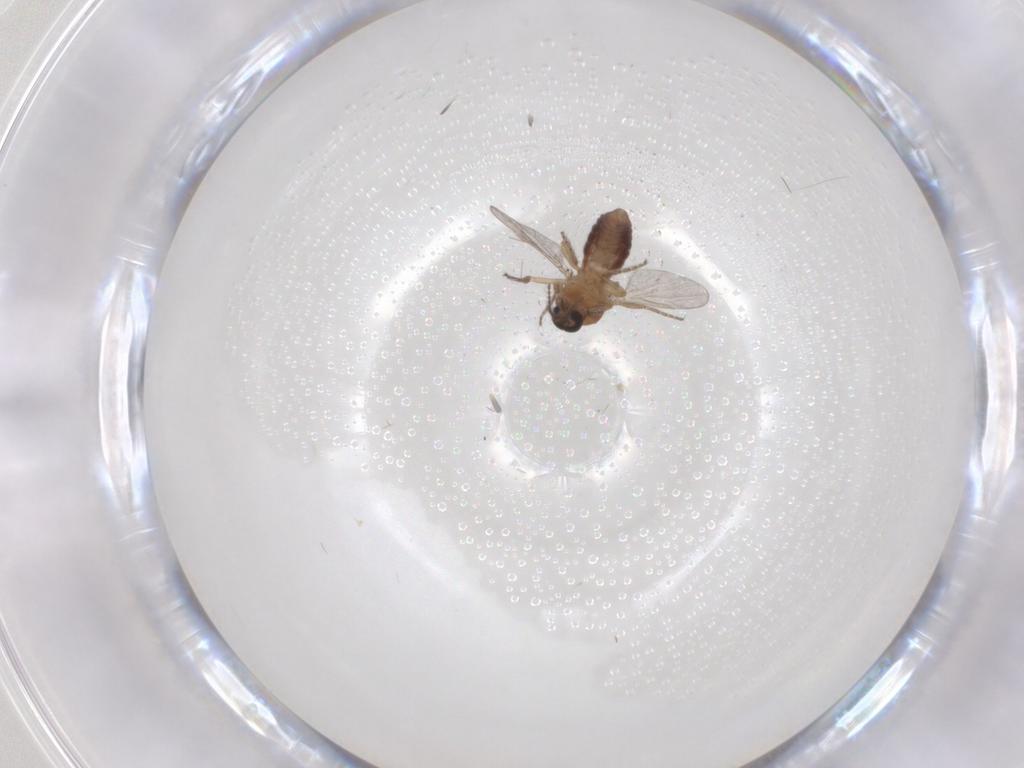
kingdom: Animalia
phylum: Arthropoda
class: Insecta
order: Diptera
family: Ceratopogonidae
